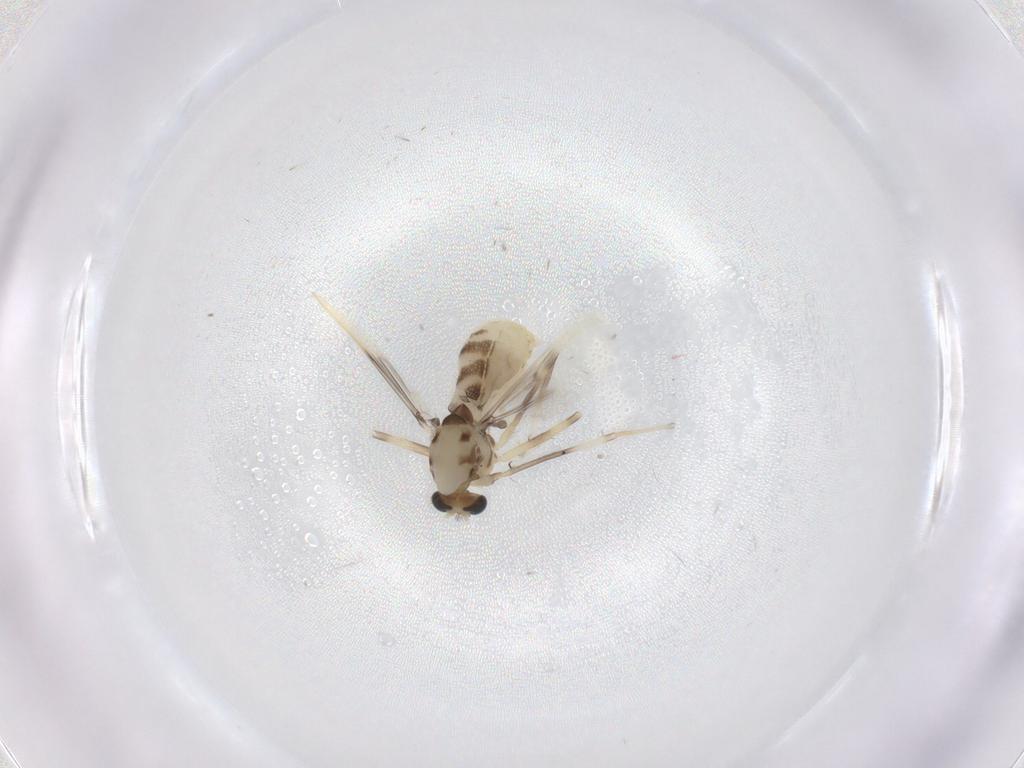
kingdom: Animalia
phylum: Arthropoda
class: Insecta
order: Diptera
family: Chironomidae
